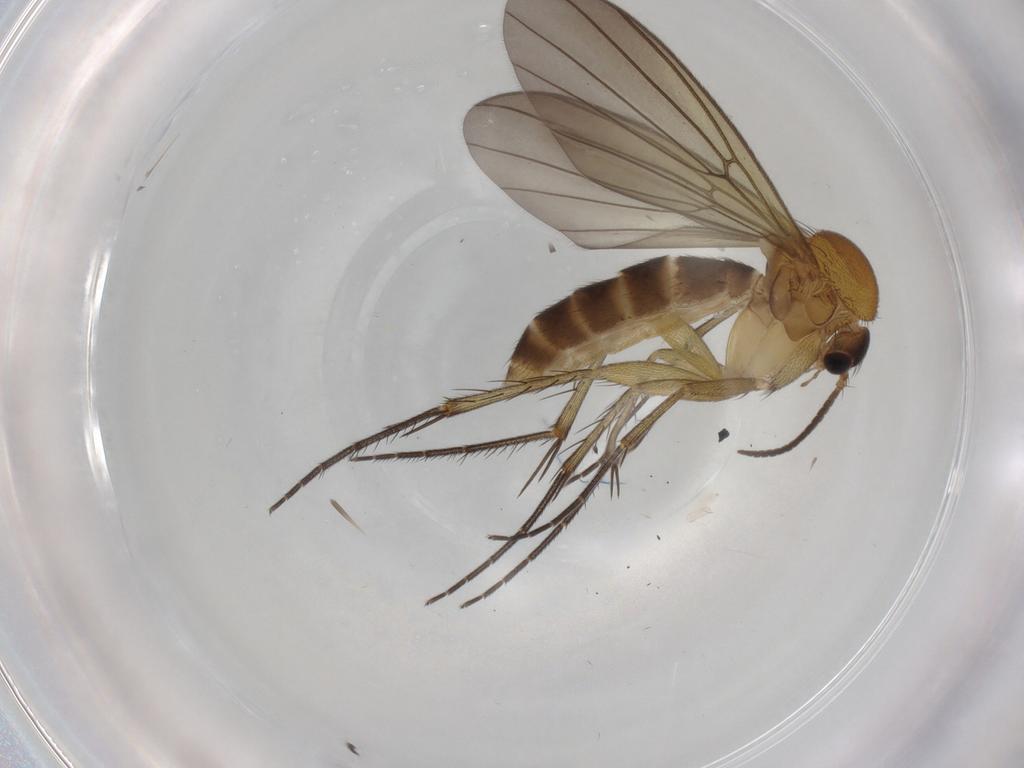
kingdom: Animalia
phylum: Arthropoda
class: Insecta
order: Diptera
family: Mycetophilidae
